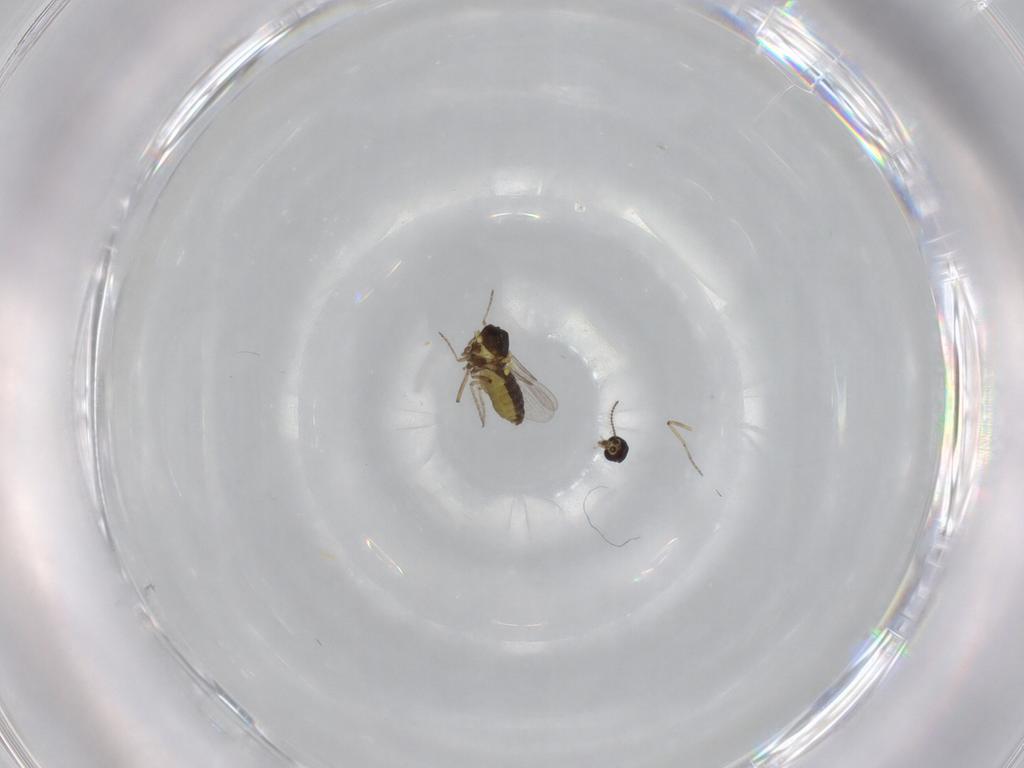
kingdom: Animalia
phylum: Arthropoda
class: Insecta
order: Diptera
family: Ceratopogonidae
